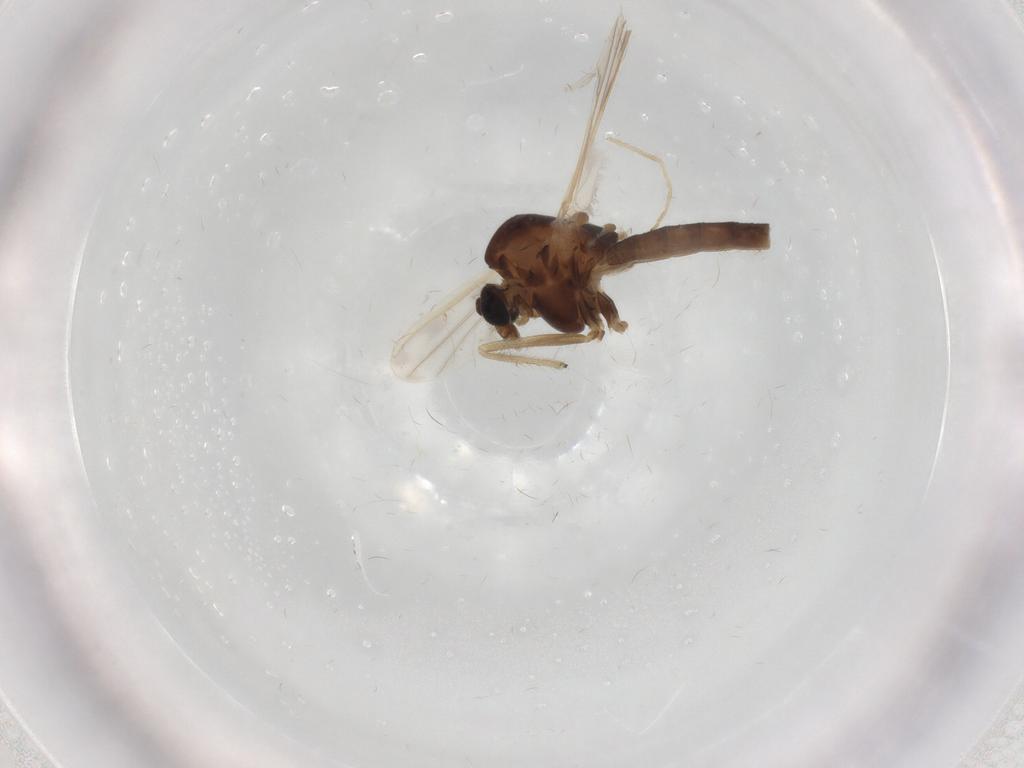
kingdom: Animalia
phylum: Arthropoda
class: Insecta
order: Diptera
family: Chironomidae
